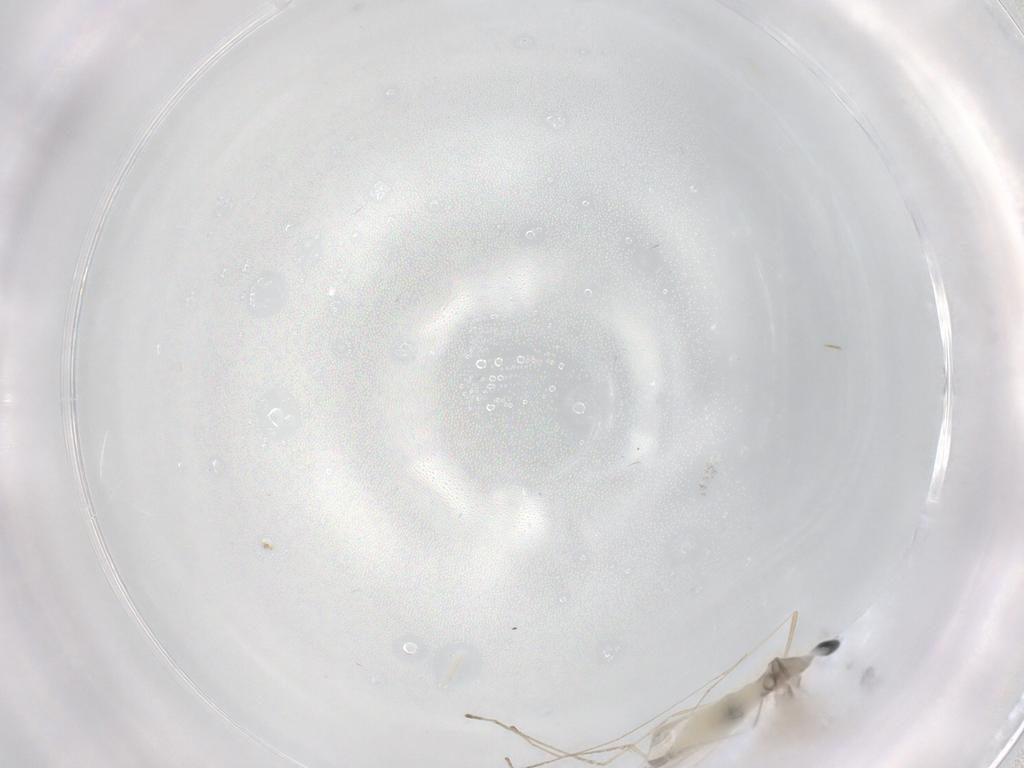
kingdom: Animalia
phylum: Arthropoda
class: Insecta
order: Diptera
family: Cecidomyiidae
